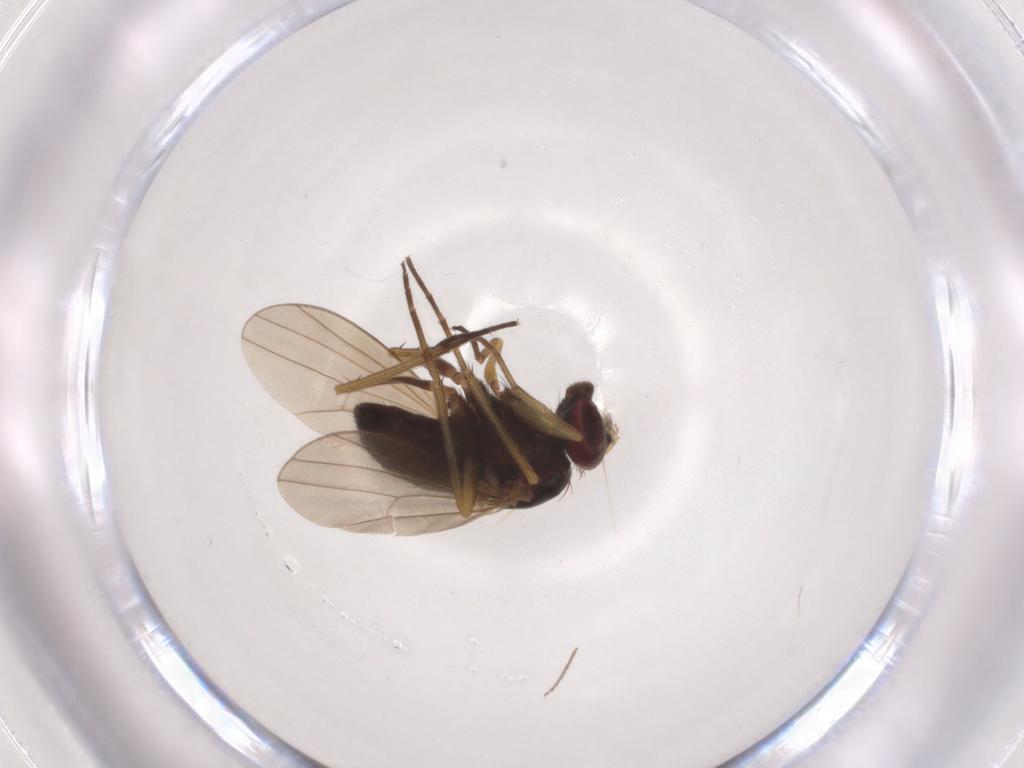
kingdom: Animalia
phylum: Arthropoda
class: Insecta
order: Diptera
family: Dolichopodidae
